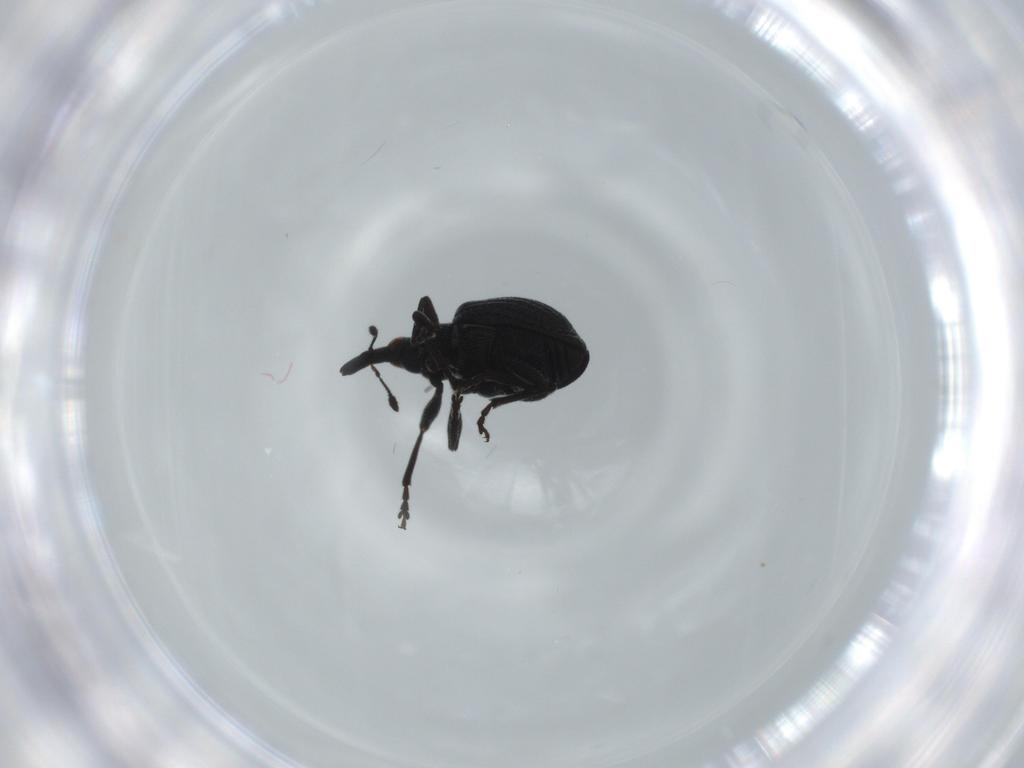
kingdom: Animalia
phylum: Arthropoda
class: Insecta
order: Coleoptera
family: Brentidae
